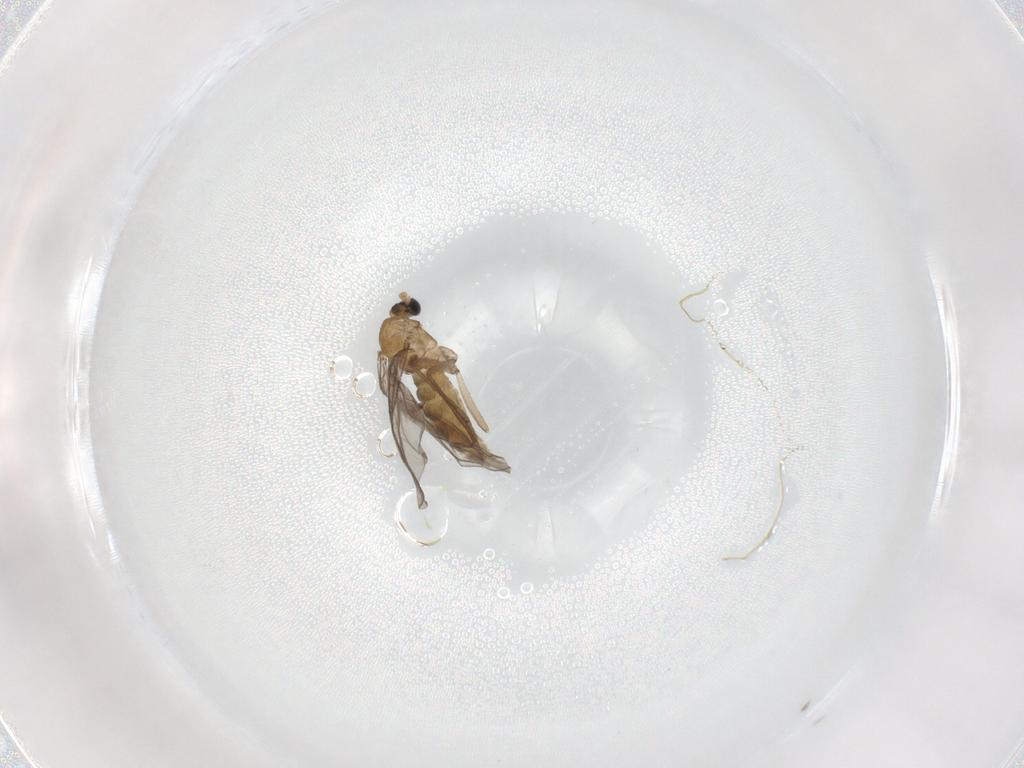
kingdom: Animalia
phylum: Arthropoda
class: Insecta
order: Diptera
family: Sciaridae
